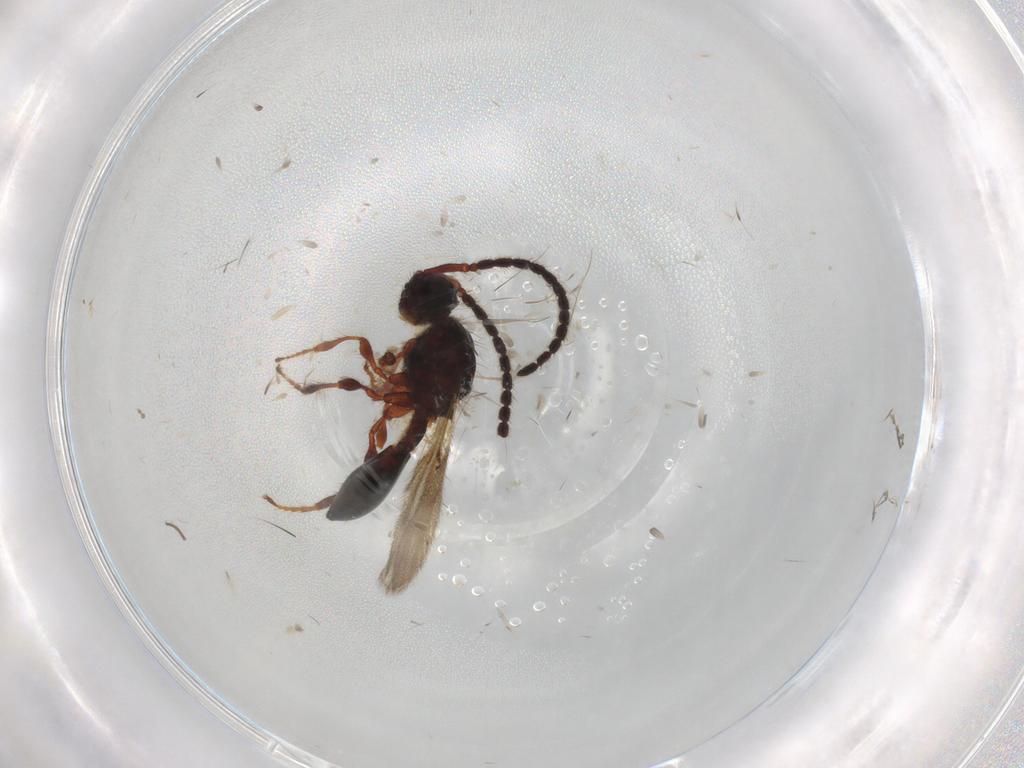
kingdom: Animalia
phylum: Arthropoda
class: Insecta
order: Hymenoptera
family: Diapriidae
